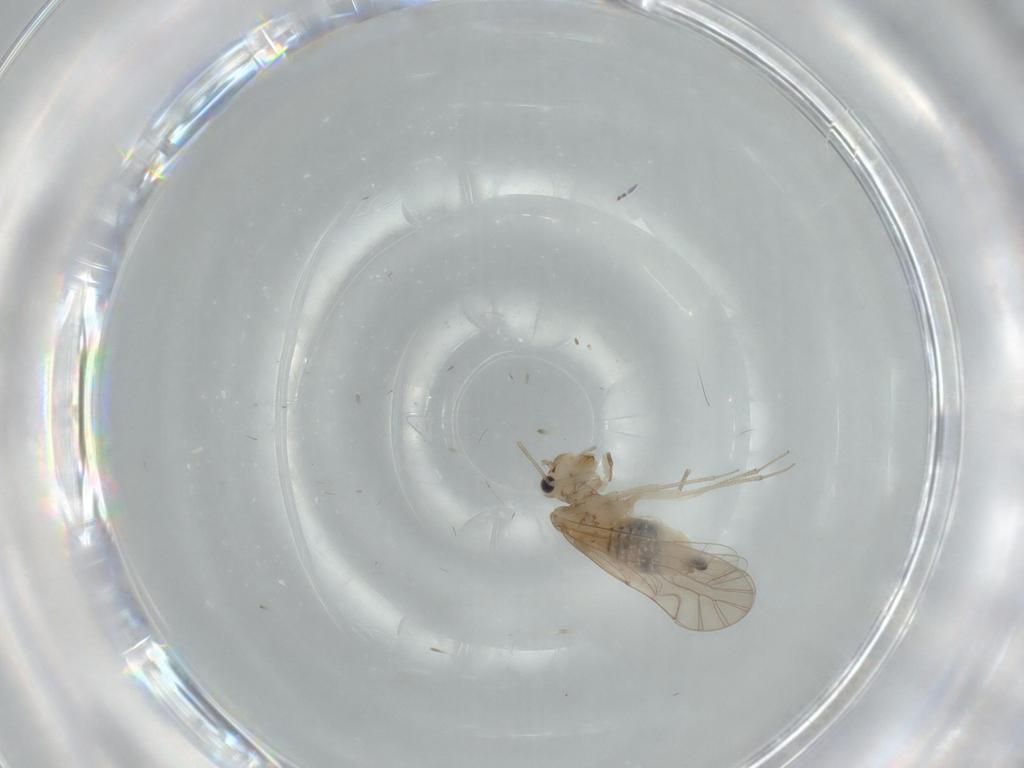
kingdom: Animalia
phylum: Arthropoda
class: Insecta
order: Psocodea
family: Lachesillidae
